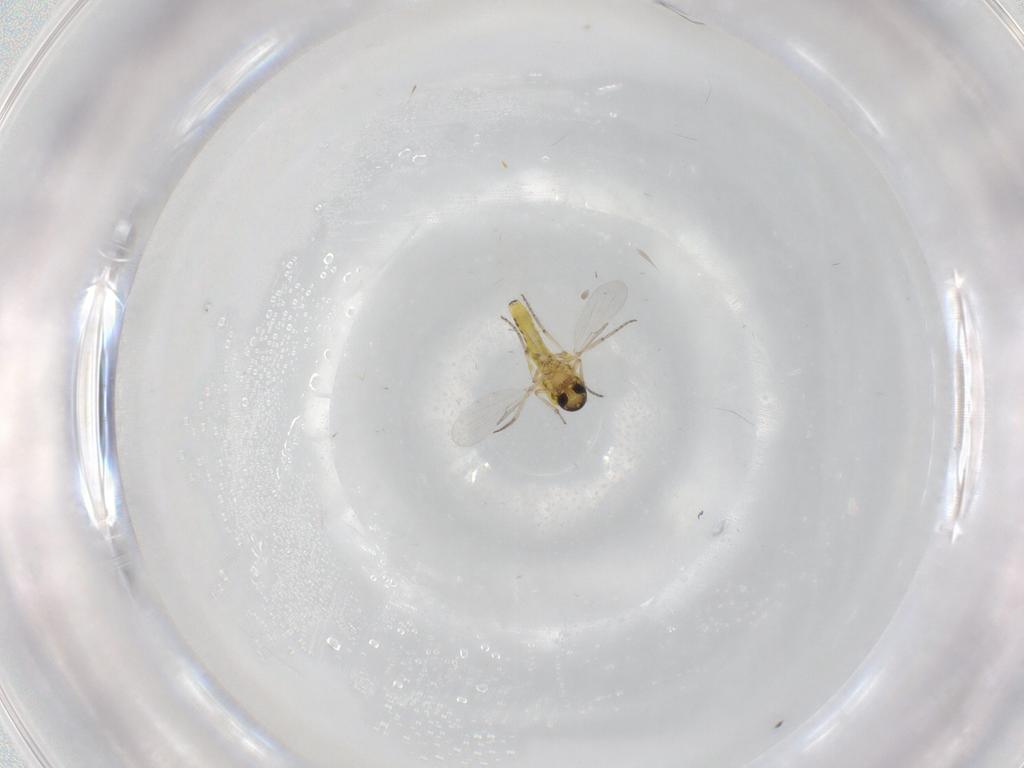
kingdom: Animalia
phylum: Arthropoda
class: Insecta
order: Diptera
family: Ceratopogonidae
